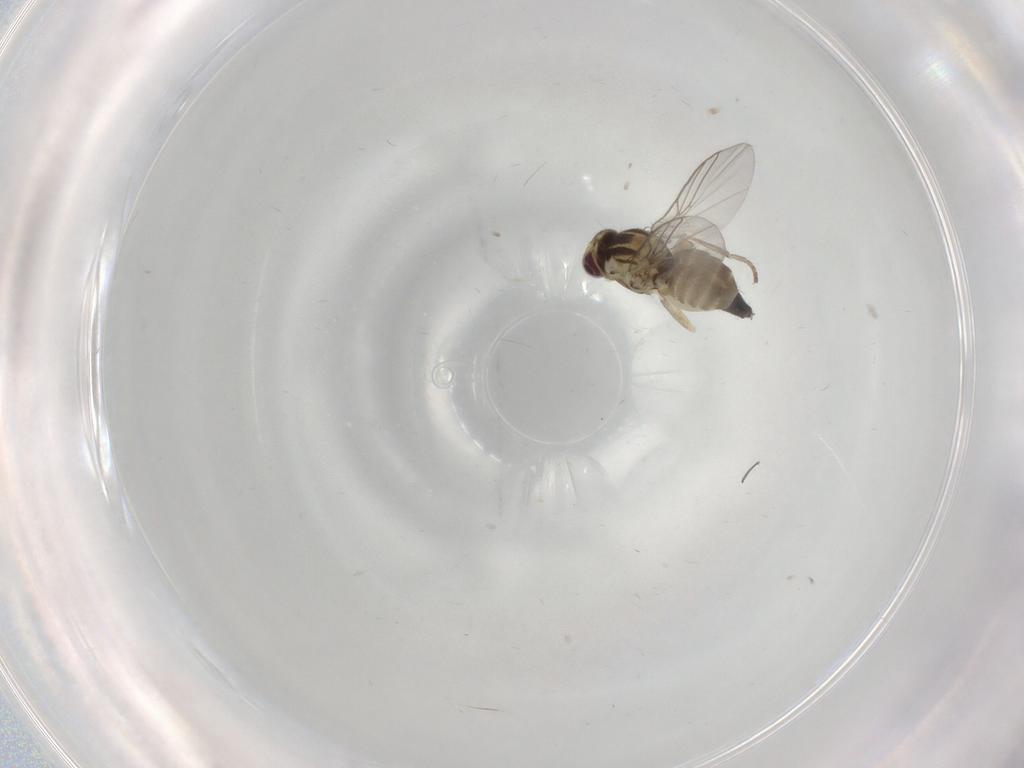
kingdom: Animalia
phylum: Arthropoda
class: Insecta
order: Diptera
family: Agromyzidae
